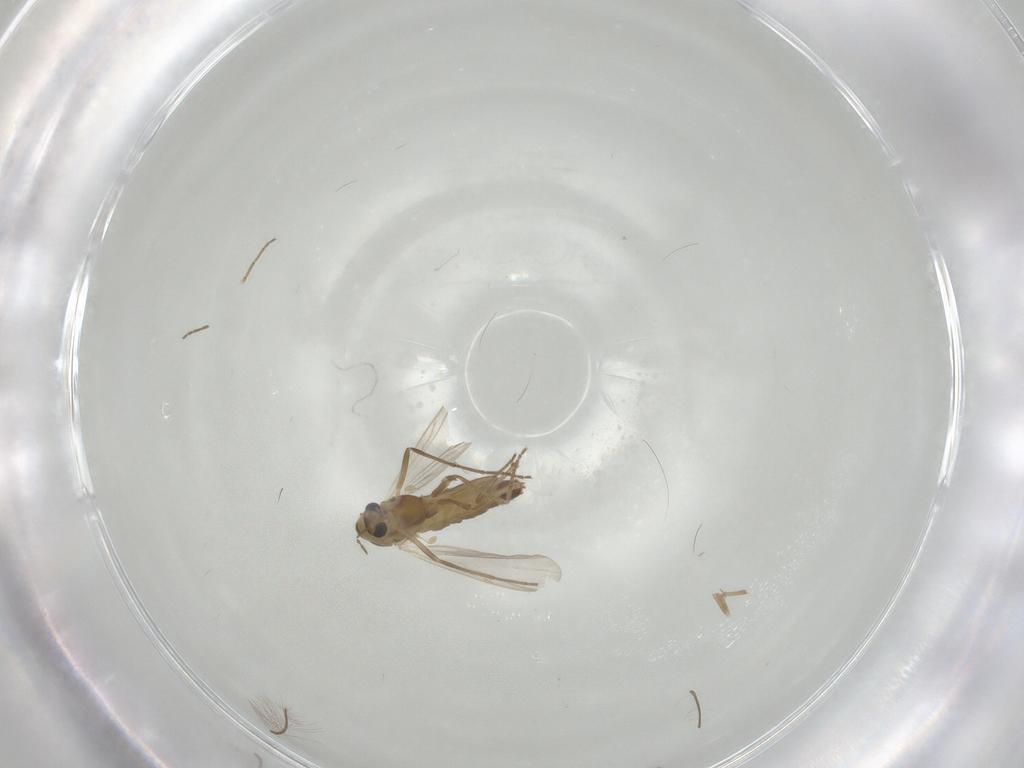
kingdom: Animalia
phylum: Arthropoda
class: Insecta
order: Diptera
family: Chironomidae
